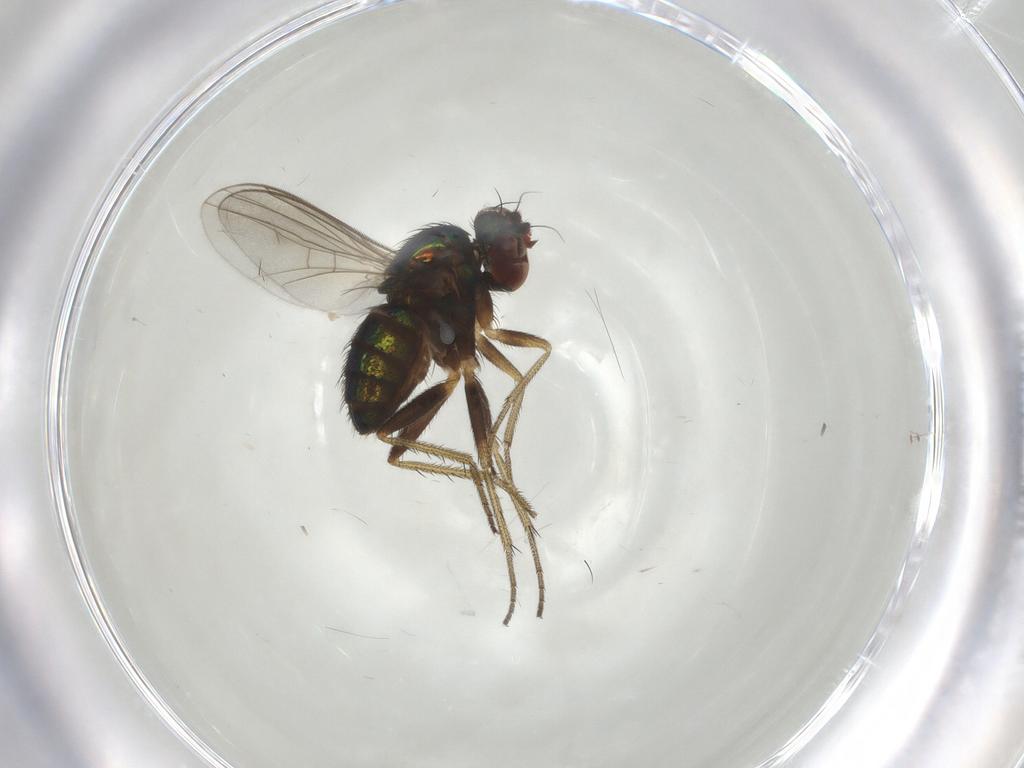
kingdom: Animalia
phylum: Arthropoda
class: Insecta
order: Diptera
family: Dolichopodidae
